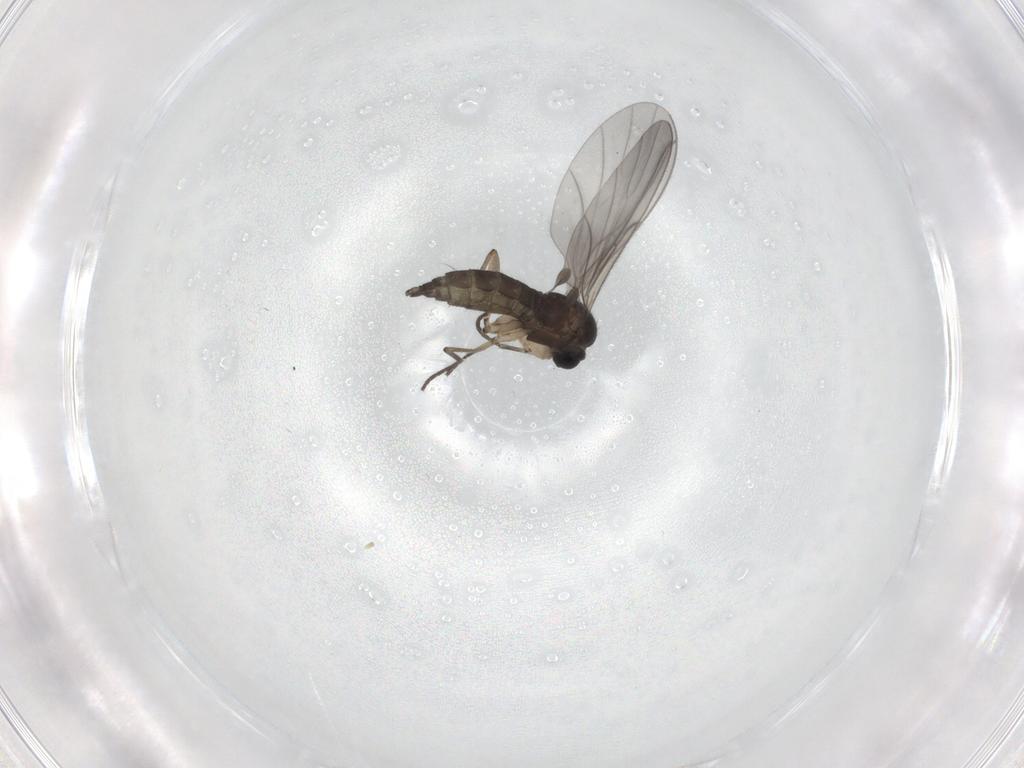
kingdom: Animalia
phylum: Arthropoda
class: Insecta
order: Diptera
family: Sciaridae
